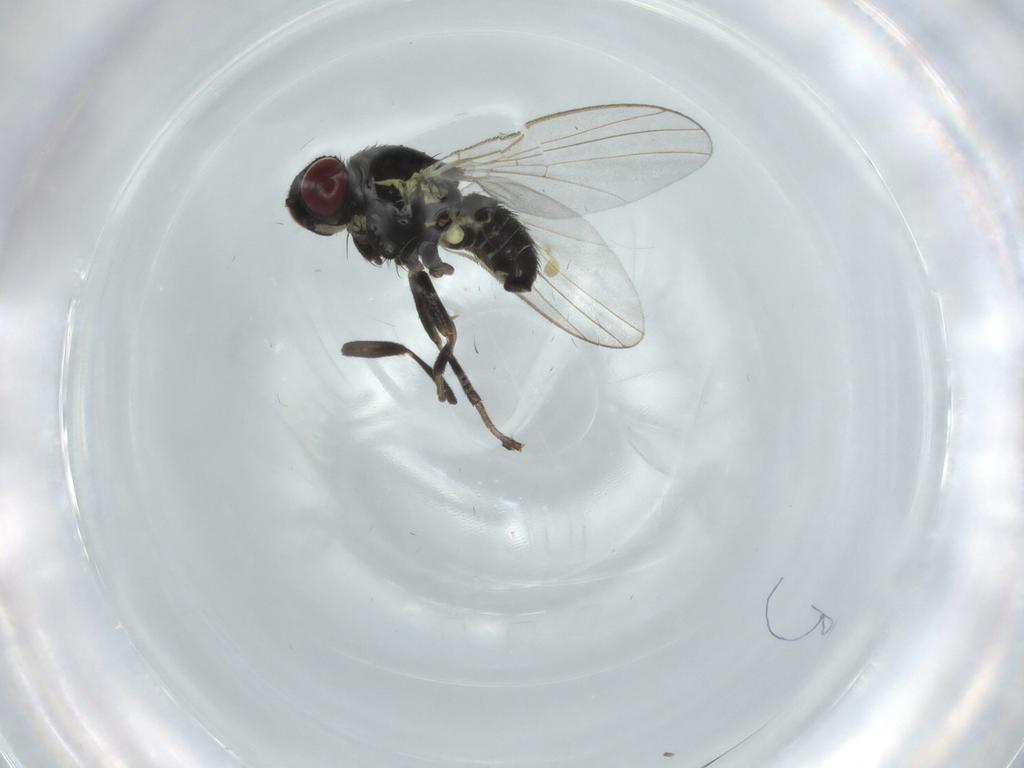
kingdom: Animalia
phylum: Arthropoda
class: Insecta
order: Diptera
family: Agromyzidae
